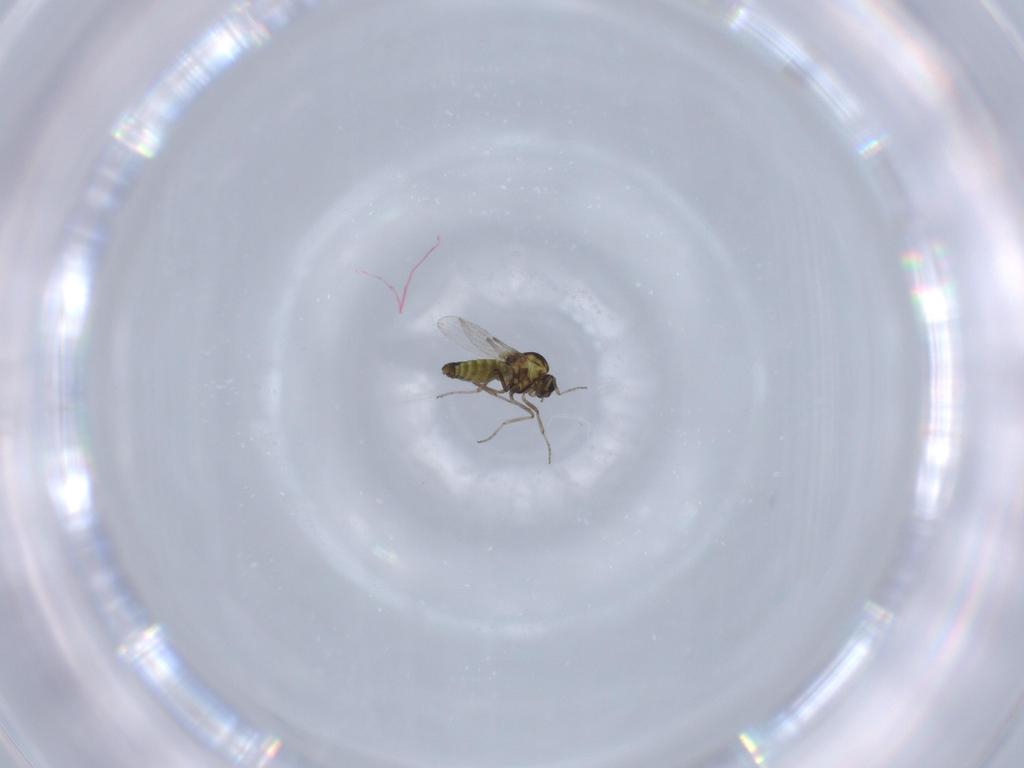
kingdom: Animalia
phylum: Arthropoda
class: Insecta
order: Diptera
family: Ceratopogonidae
